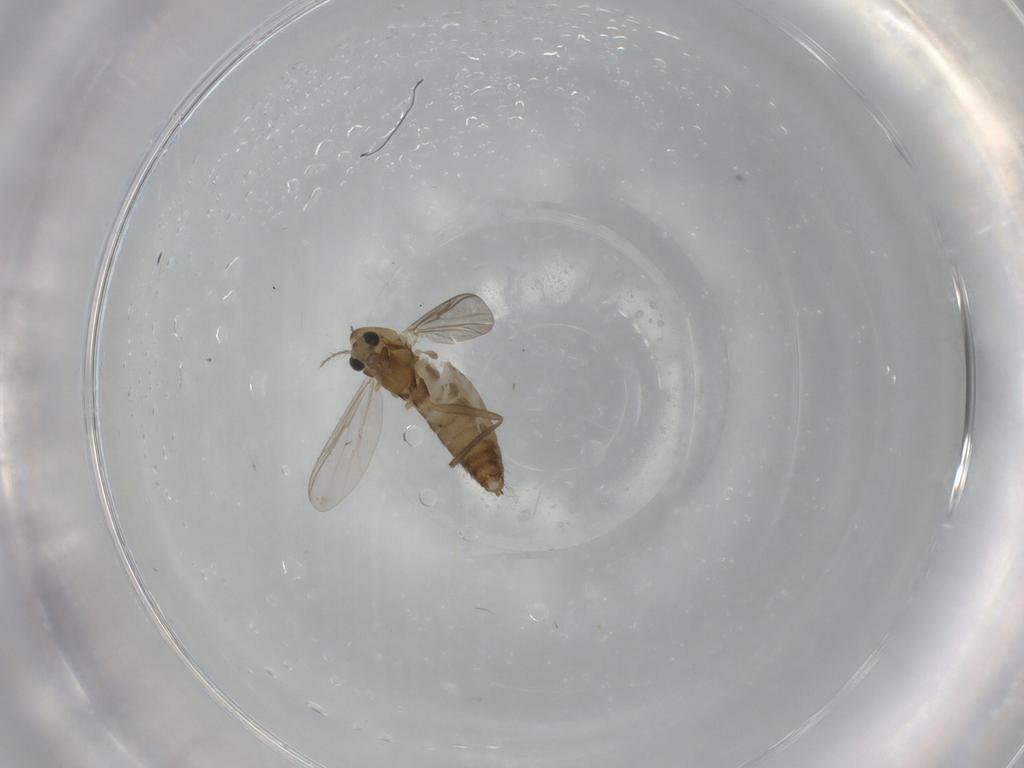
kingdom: Animalia
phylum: Arthropoda
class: Insecta
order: Diptera
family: Chironomidae
